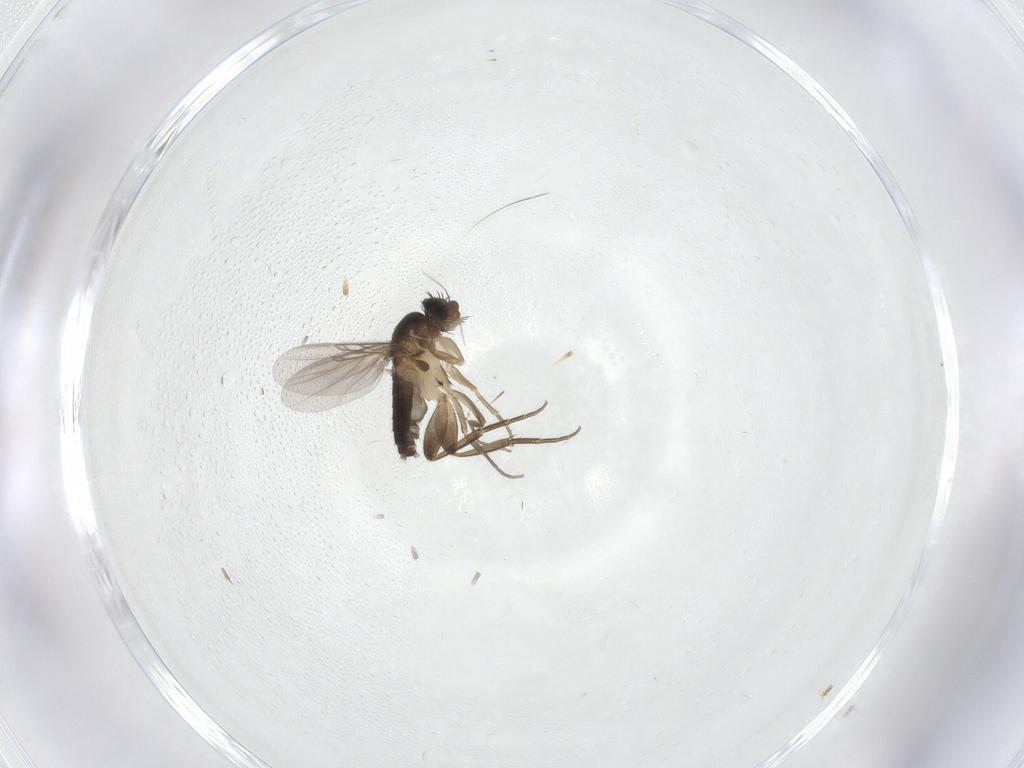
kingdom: Animalia
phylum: Arthropoda
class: Insecta
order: Diptera
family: Phoridae
